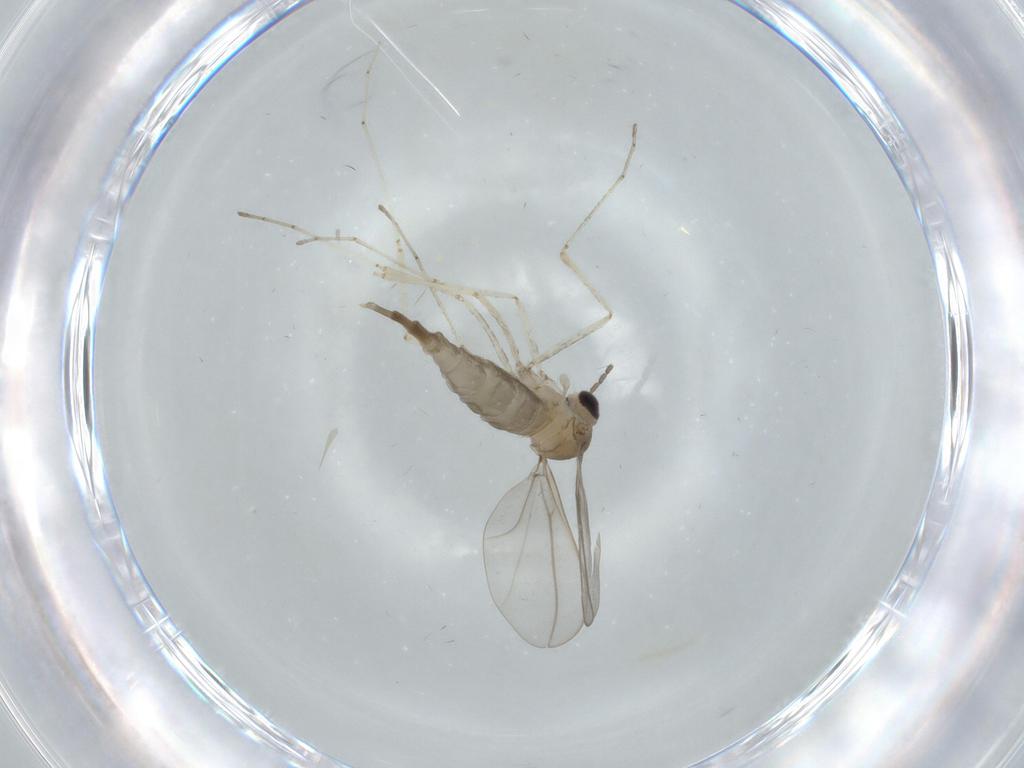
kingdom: Animalia
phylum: Arthropoda
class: Insecta
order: Diptera
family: Cecidomyiidae
